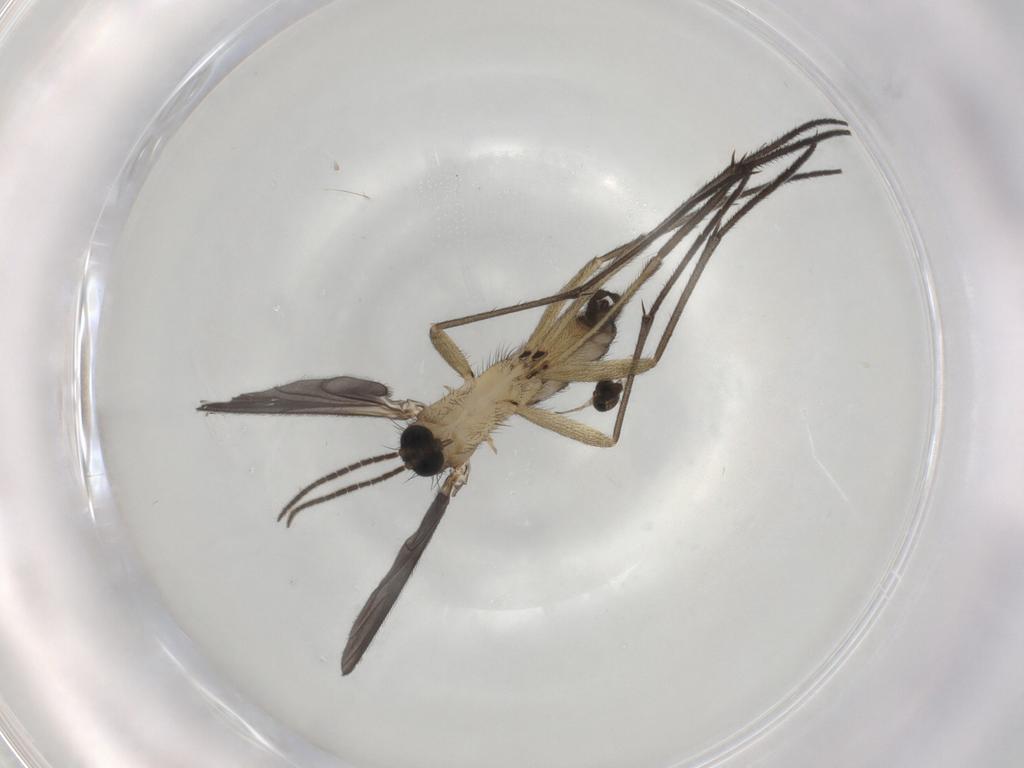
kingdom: Animalia
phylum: Arthropoda
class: Insecta
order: Diptera
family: Sciaridae
